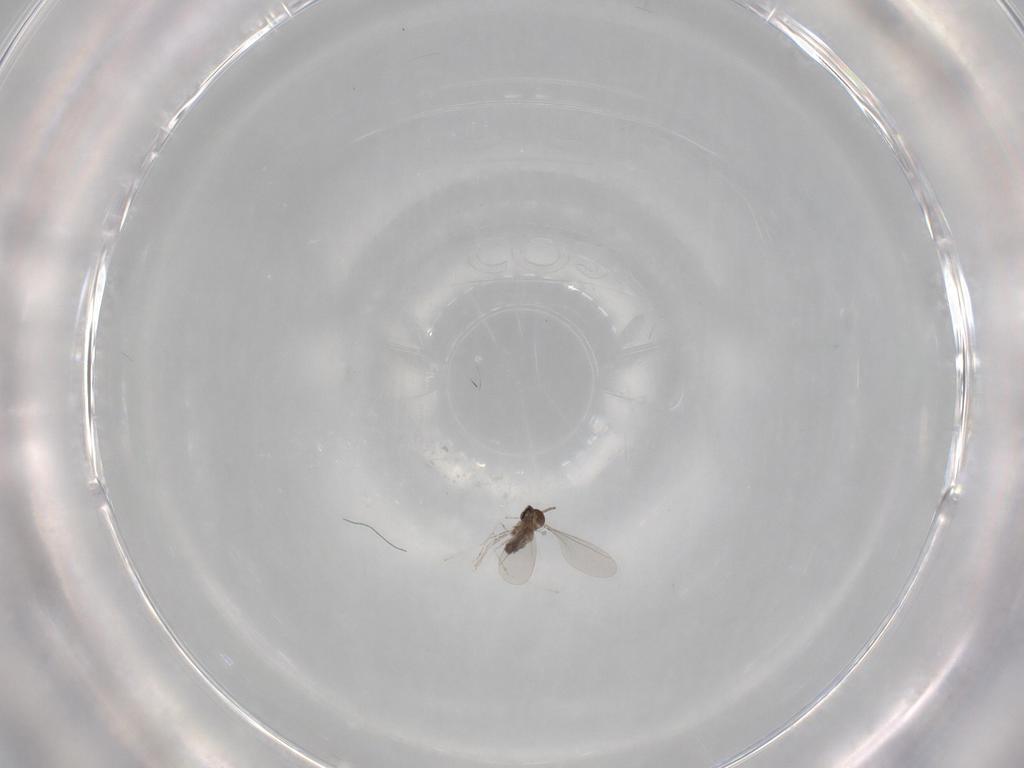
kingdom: Animalia
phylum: Arthropoda
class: Insecta
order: Diptera
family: Cecidomyiidae
